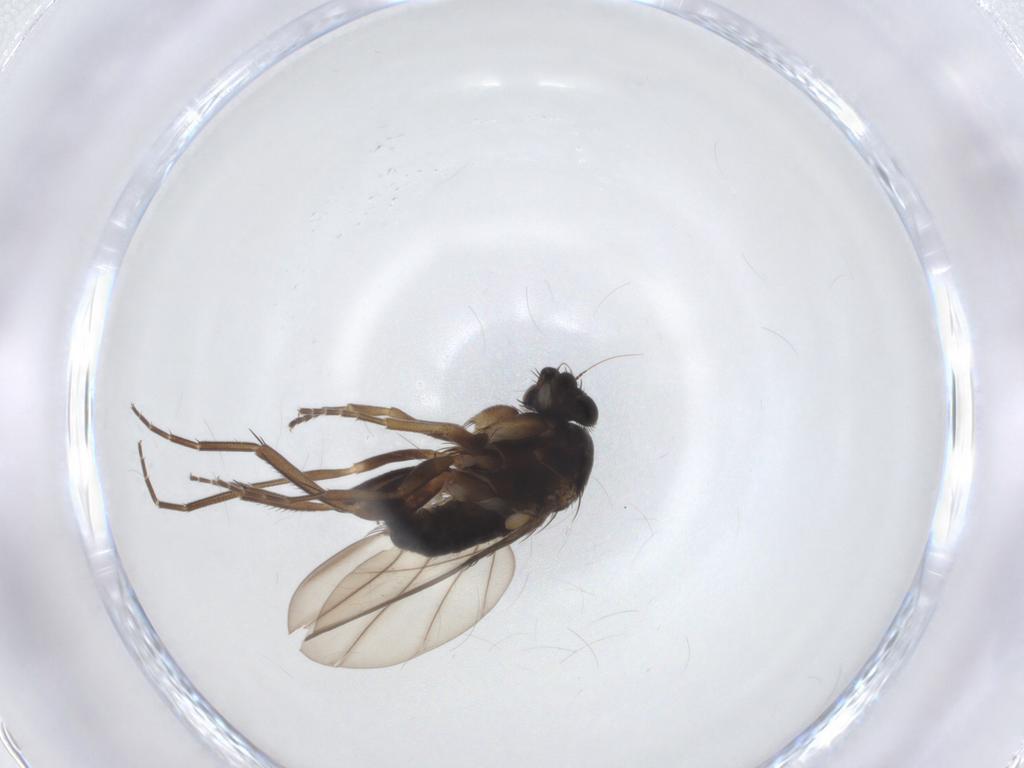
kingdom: Animalia
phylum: Arthropoda
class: Insecta
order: Diptera
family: Phoridae
